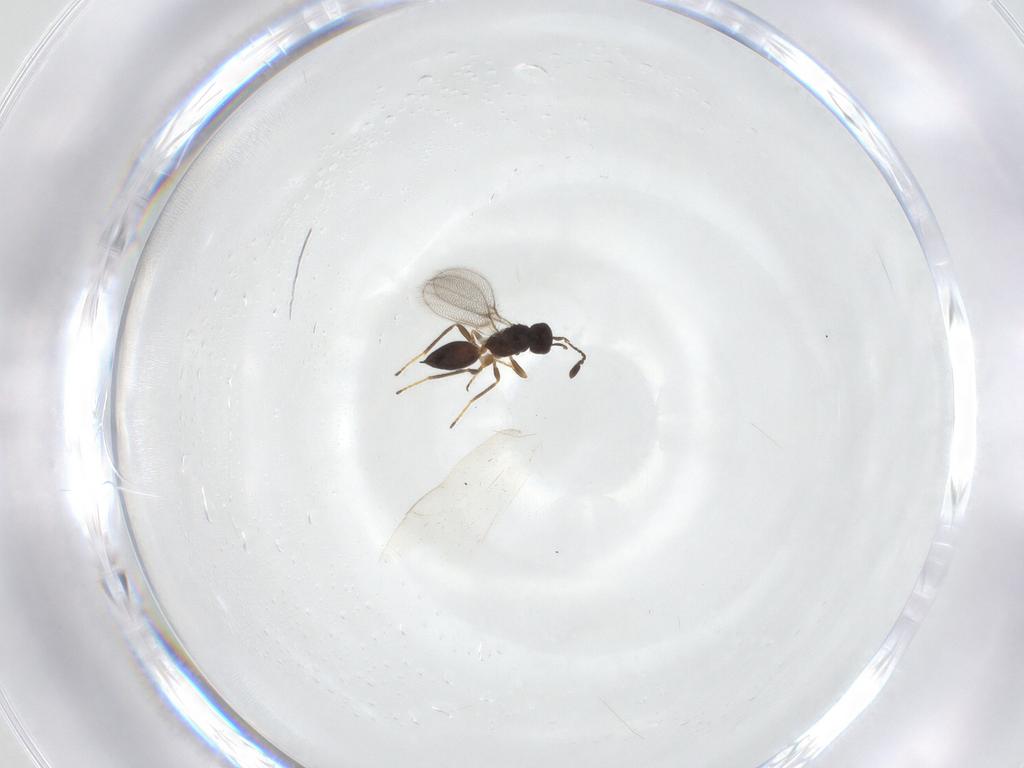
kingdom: Animalia
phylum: Arthropoda
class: Insecta
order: Hymenoptera
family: Mymaridae
